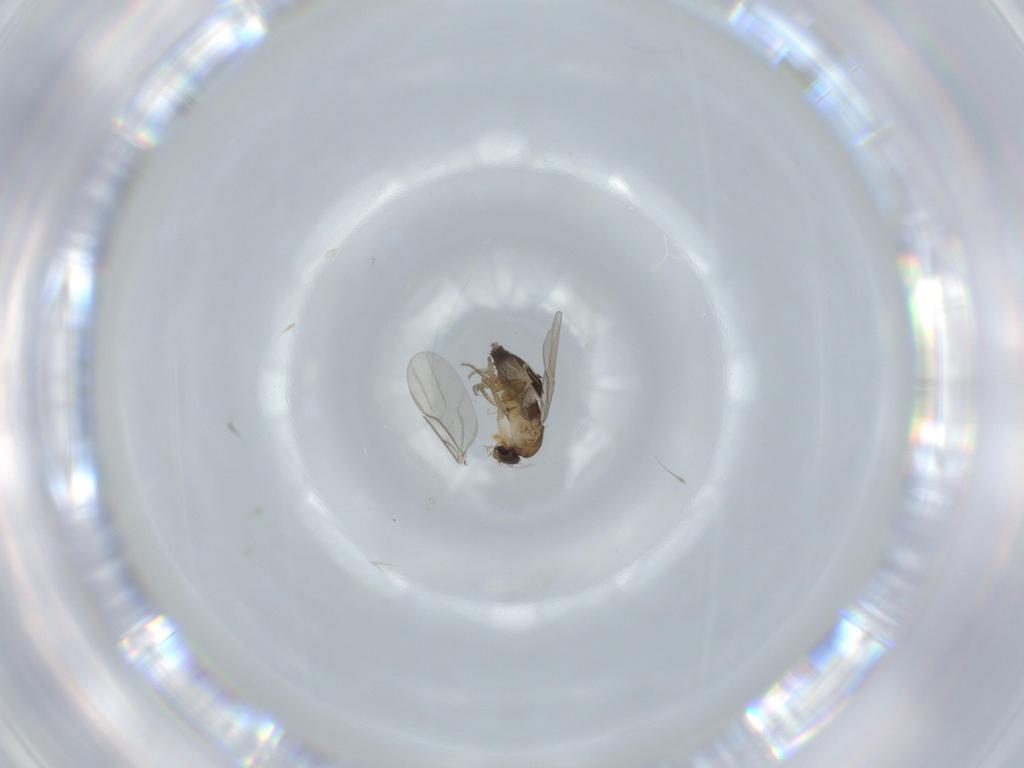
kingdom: Animalia
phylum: Arthropoda
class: Insecta
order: Diptera
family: Phoridae
